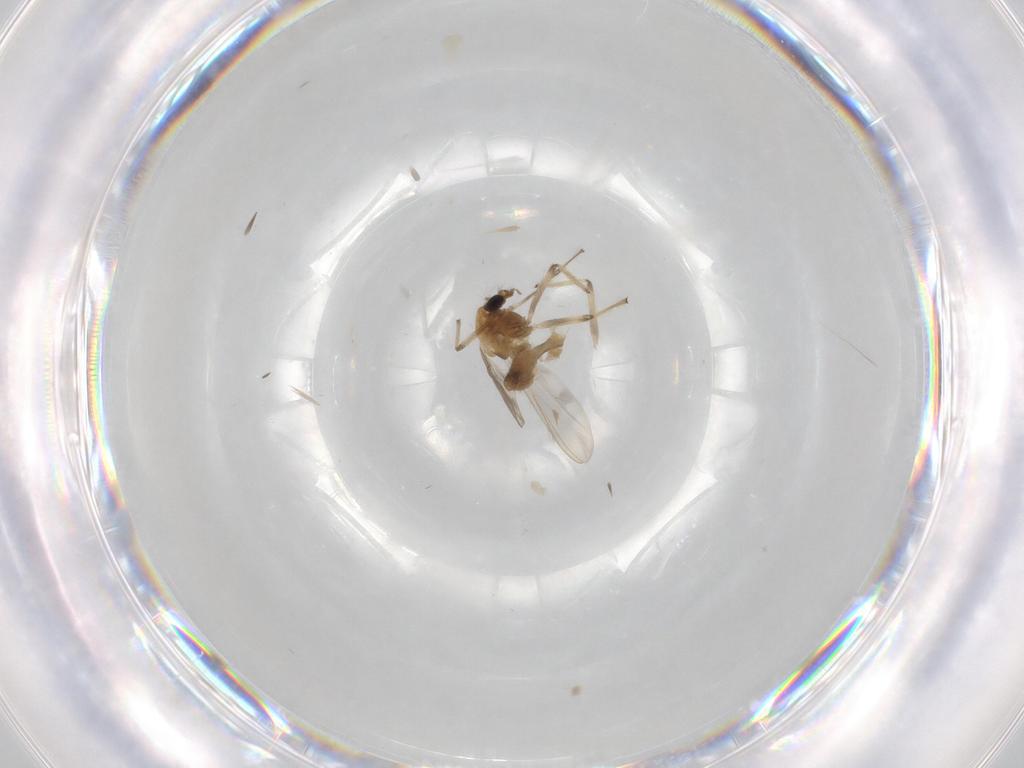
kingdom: Animalia
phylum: Arthropoda
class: Insecta
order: Diptera
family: Chironomidae
